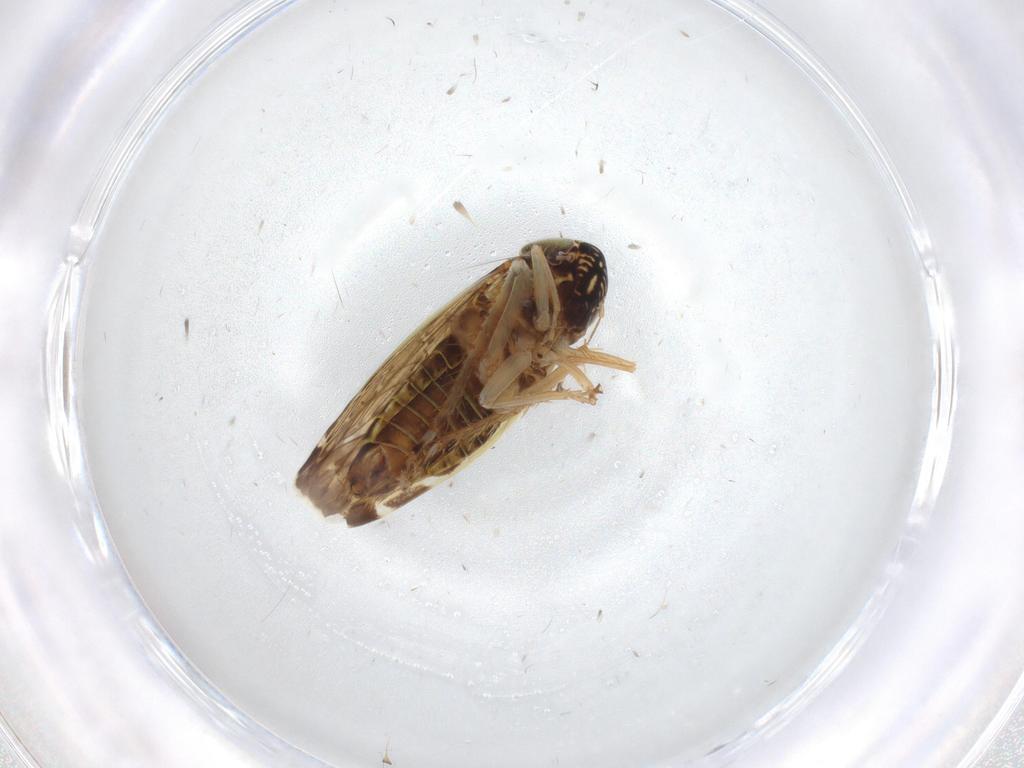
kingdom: Animalia
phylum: Arthropoda
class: Insecta
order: Hemiptera
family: Cicadellidae
